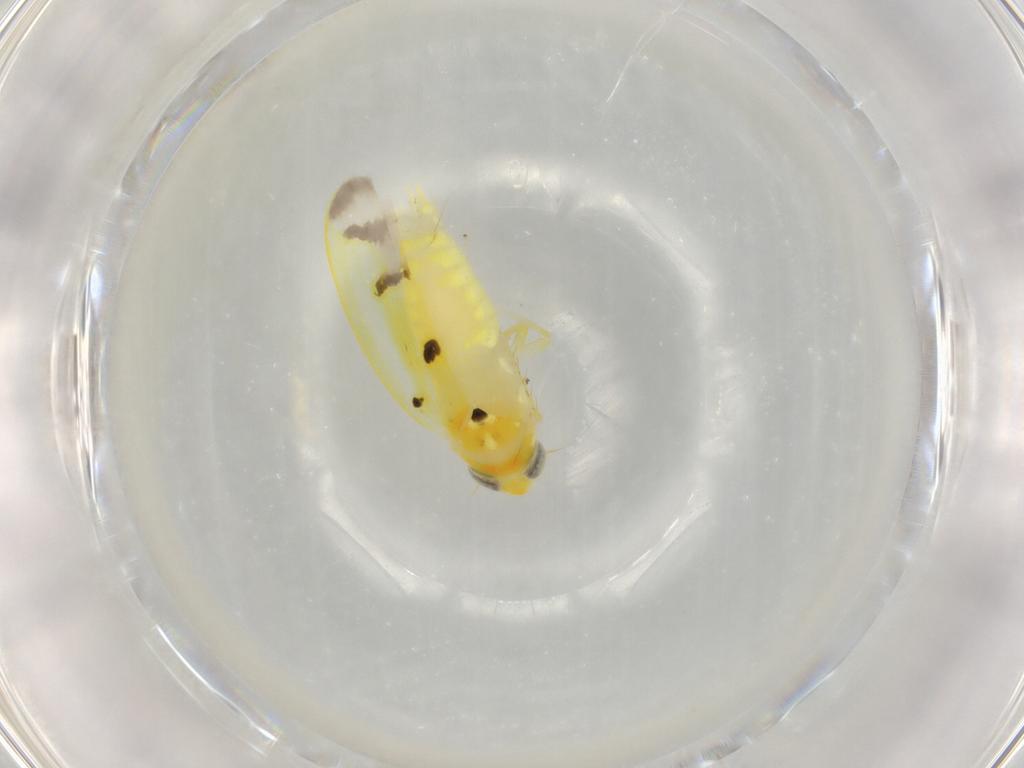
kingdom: Animalia
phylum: Arthropoda
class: Insecta
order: Hemiptera
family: Cicadellidae
